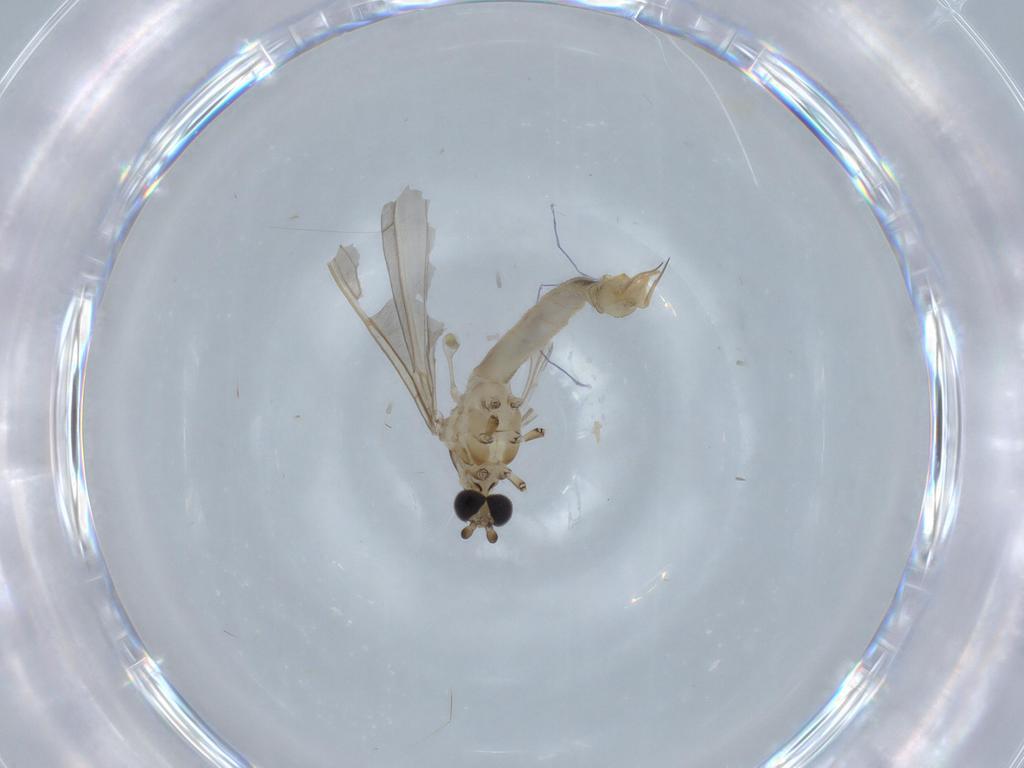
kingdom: Animalia
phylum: Arthropoda
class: Insecta
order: Diptera
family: Limoniidae
